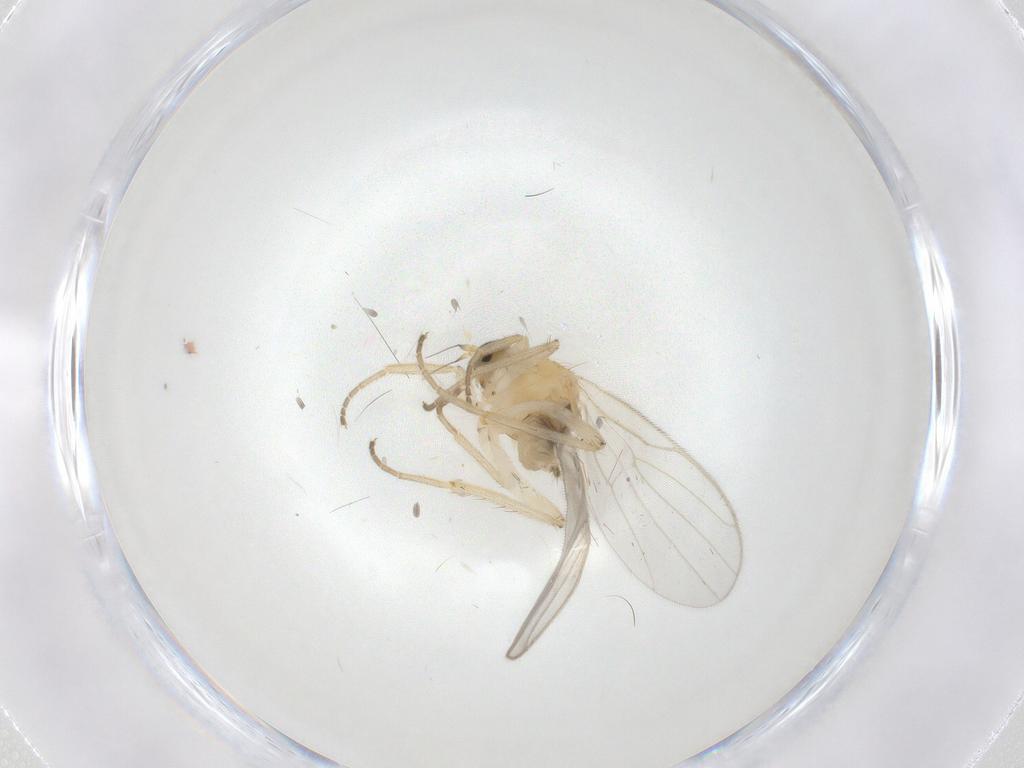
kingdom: Animalia
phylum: Arthropoda
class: Insecta
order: Diptera
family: Hybotidae
